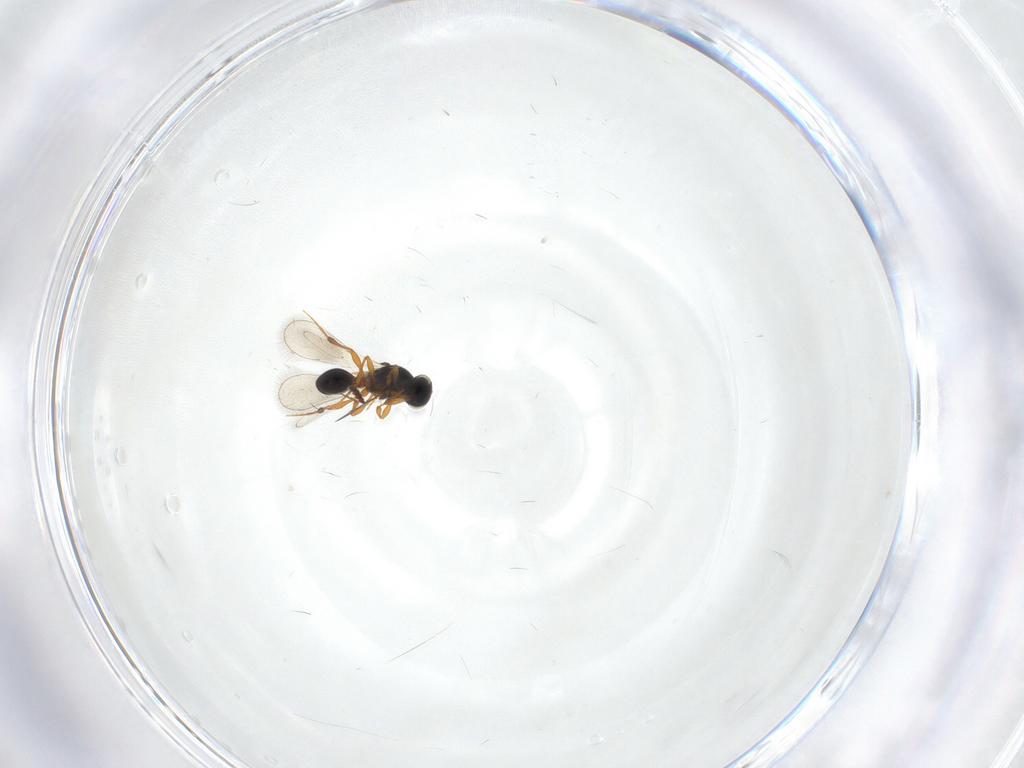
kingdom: Animalia
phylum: Arthropoda
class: Insecta
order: Hymenoptera
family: Platygastridae
